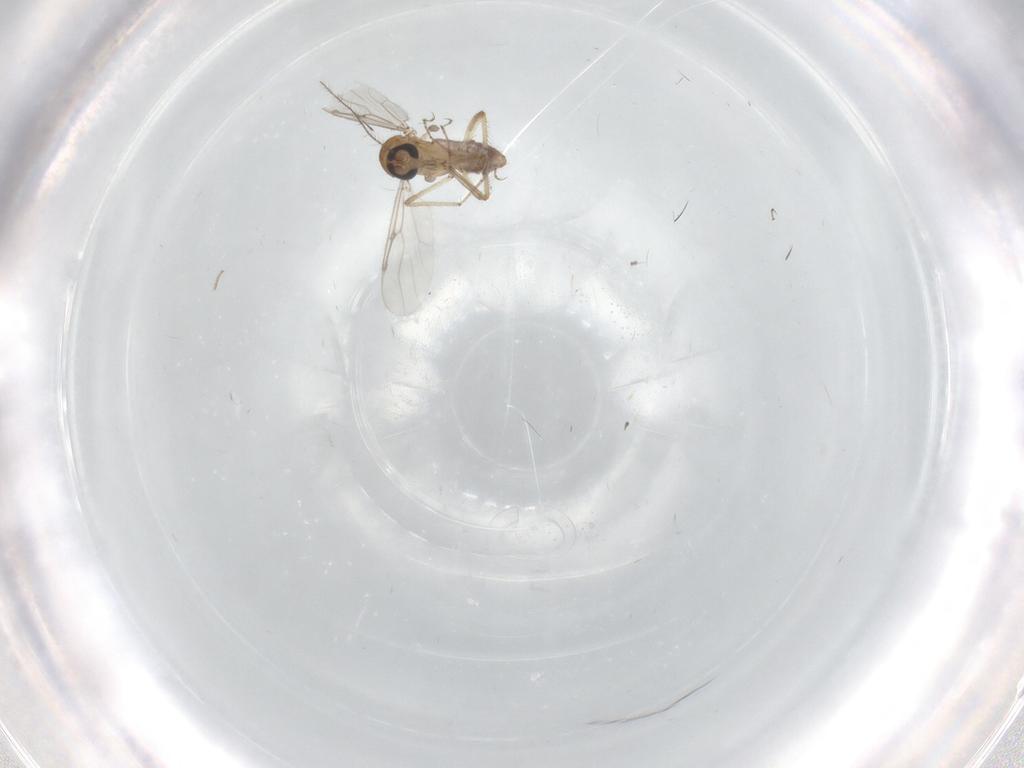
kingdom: Animalia
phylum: Arthropoda
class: Insecta
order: Diptera
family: Ceratopogonidae
